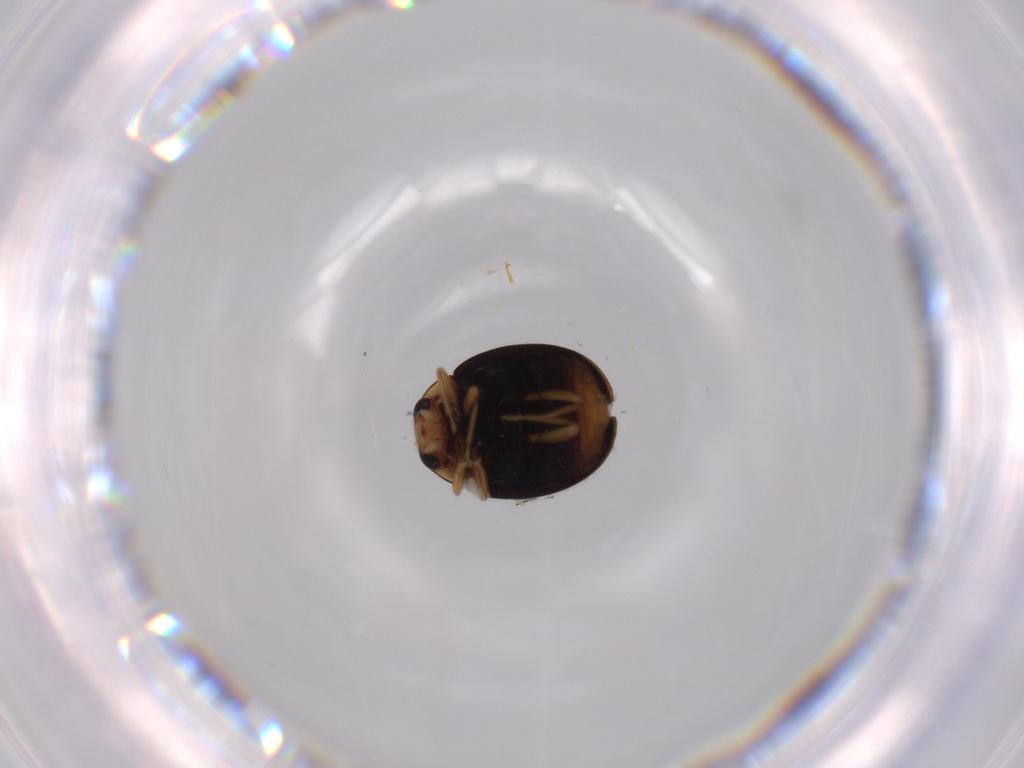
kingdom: Animalia
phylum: Arthropoda
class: Insecta
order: Coleoptera
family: Coccinellidae
